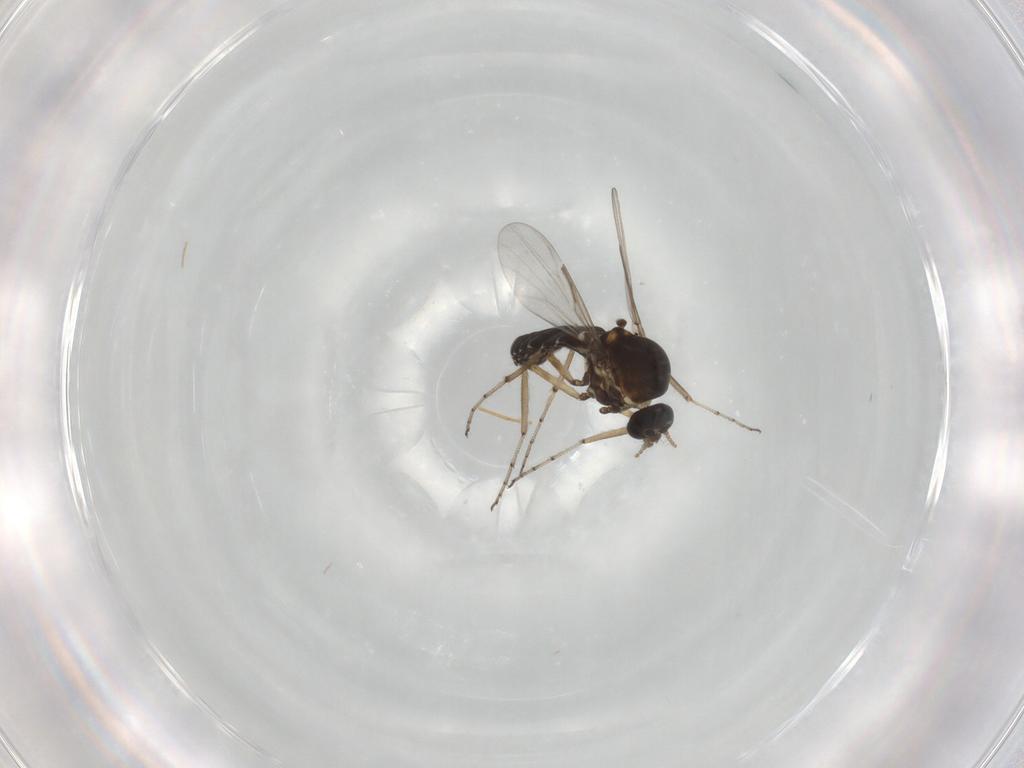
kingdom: Animalia
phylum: Arthropoda
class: Insecta
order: Diptera
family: Ceratopogonidae
